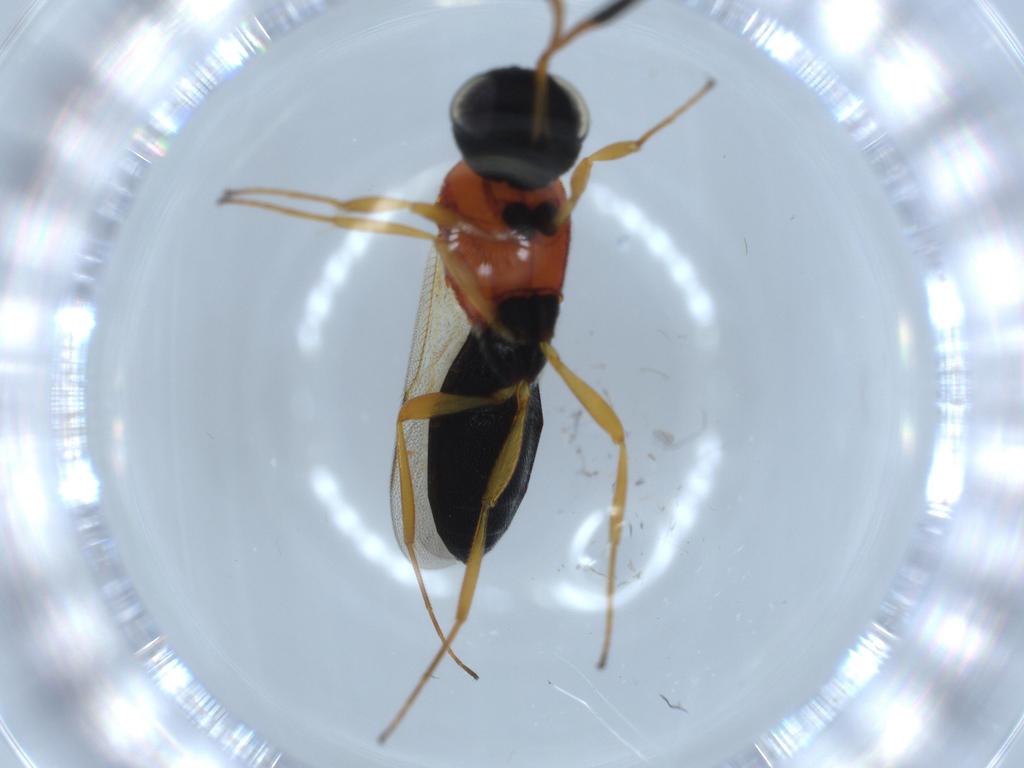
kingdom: Animalia
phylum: Arthropoda
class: Insecta
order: Hymenoptera
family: Scelionidae
